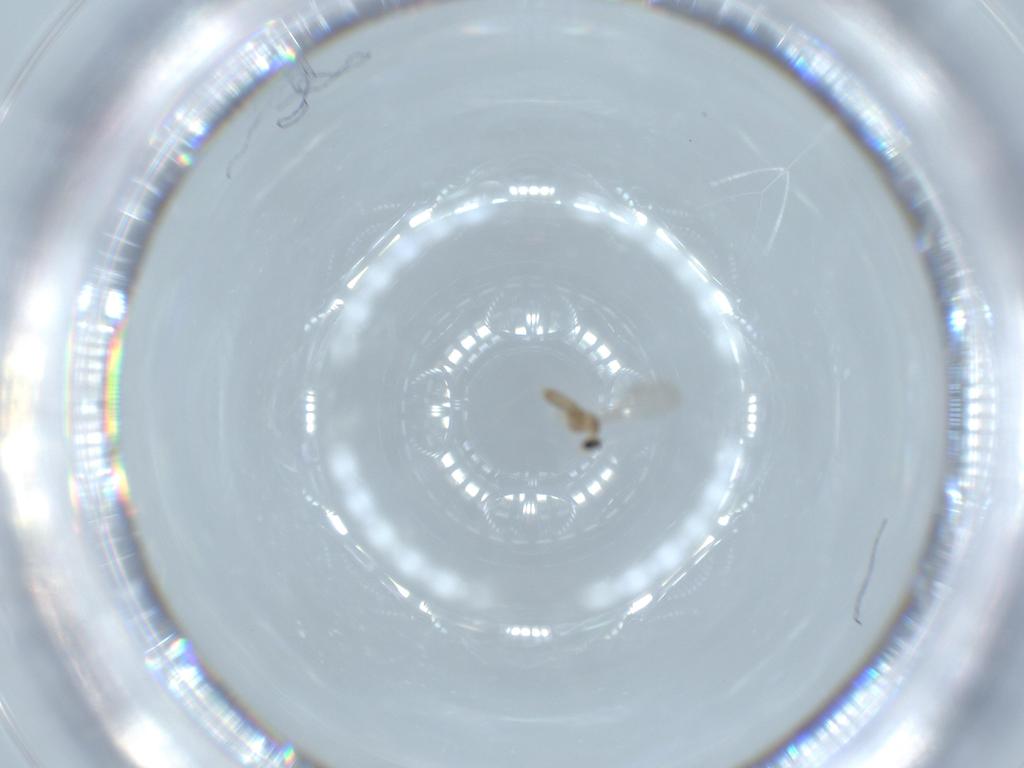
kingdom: Animalia
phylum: Arthropoda
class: Insecta
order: Diptera
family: Cecidomyiidae
